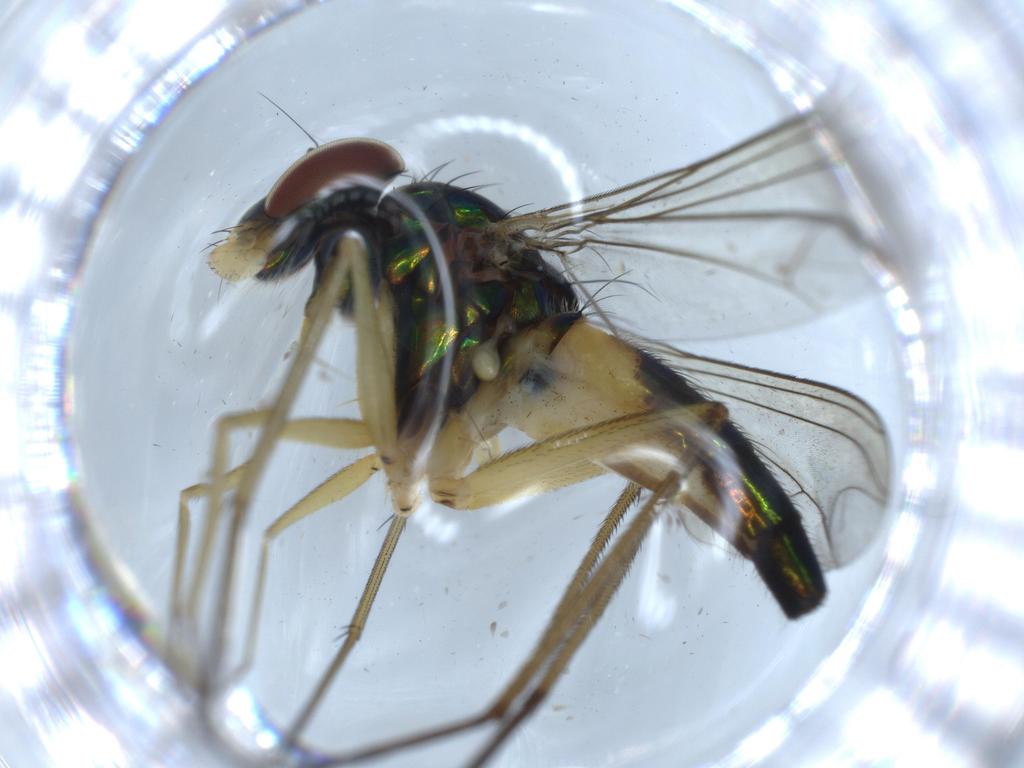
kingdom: Animalia
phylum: Arthropoda
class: Insecta
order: Diptera
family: Dolichopodidae
